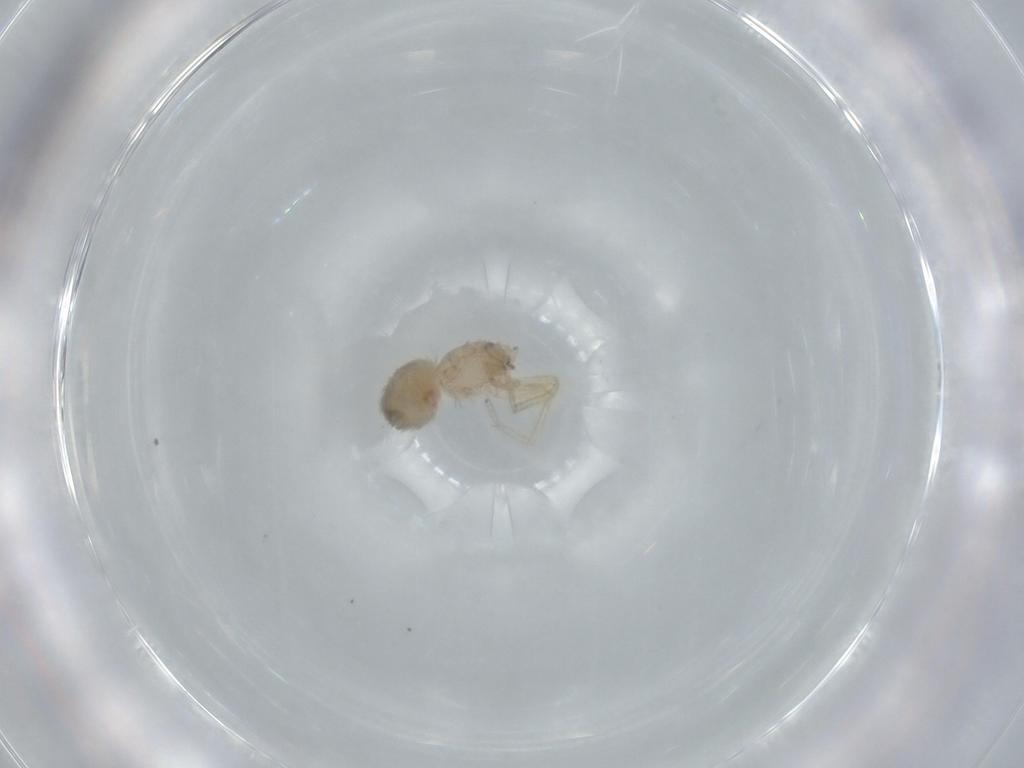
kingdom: Animalia
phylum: Arthropoda
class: Arachnida
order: Araneae
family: Oonopidae
